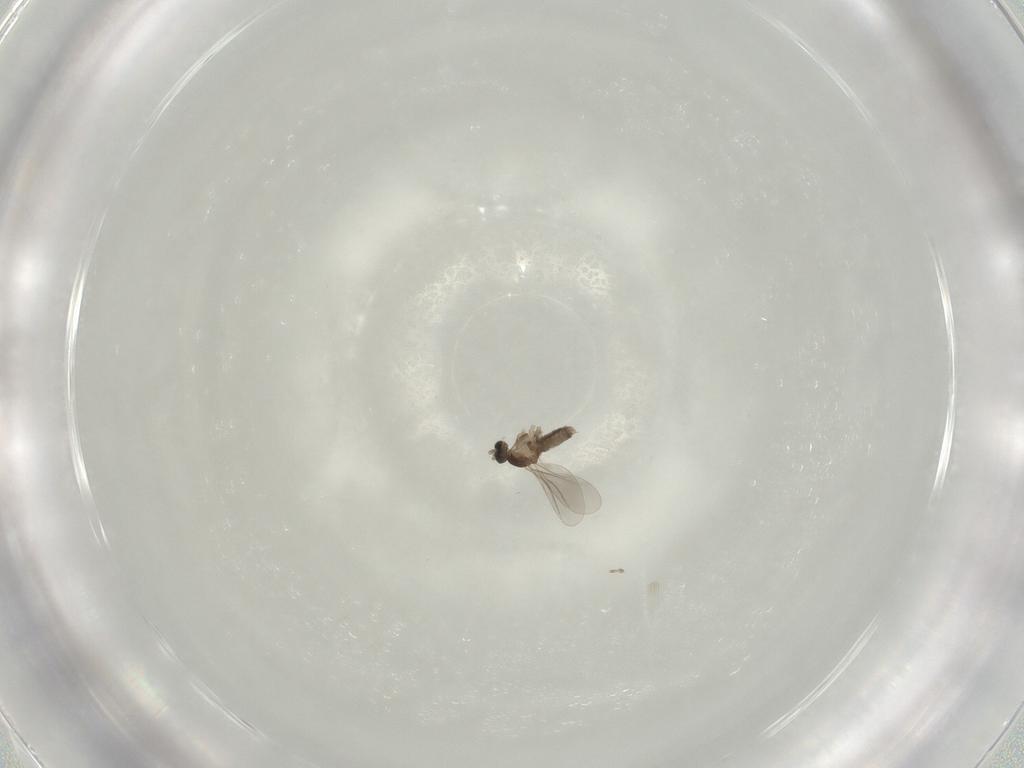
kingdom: Animalia
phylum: Arthropoda
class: Insecta
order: Diptera
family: Cecidomyiidae
